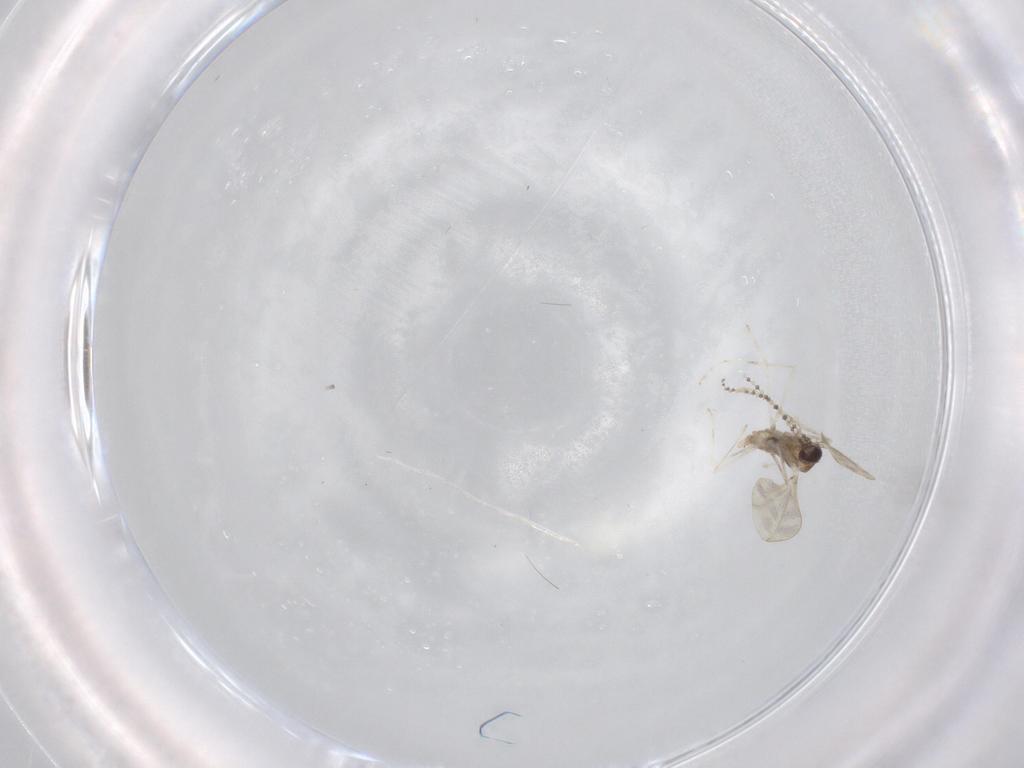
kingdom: Animalia
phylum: Arthropoda
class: Insecta
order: Diptera
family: Cecidomyiidae
